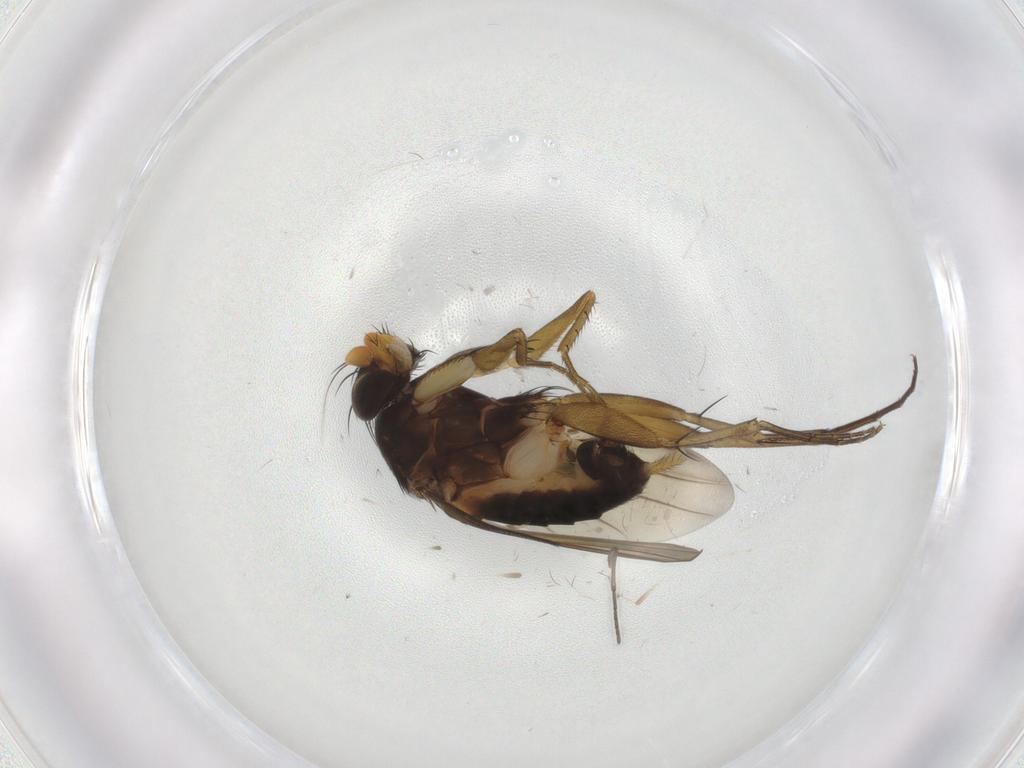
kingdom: Animalia
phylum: Arthropoda
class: Insecta
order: Diptera
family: Phoridae
